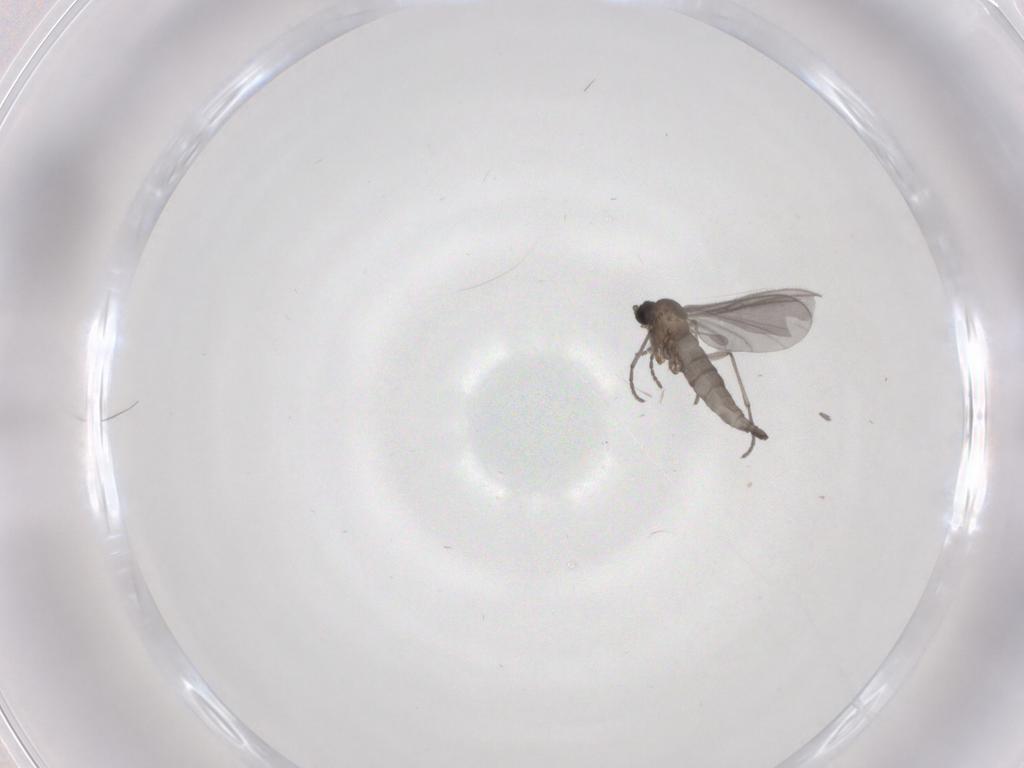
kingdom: Animalia
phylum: Arthropoda
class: Insecta
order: Diptera
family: Sciaridae
